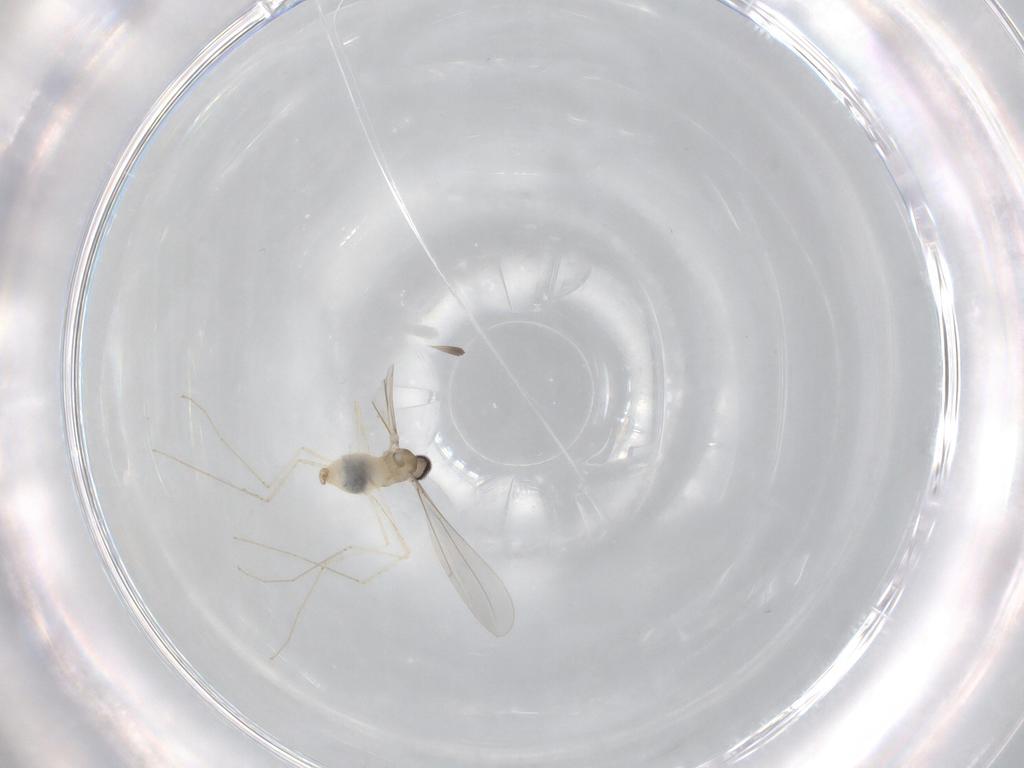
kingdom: Animalia
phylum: Arthropoda
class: Insecta
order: Diptera
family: Cecidomyiidae
